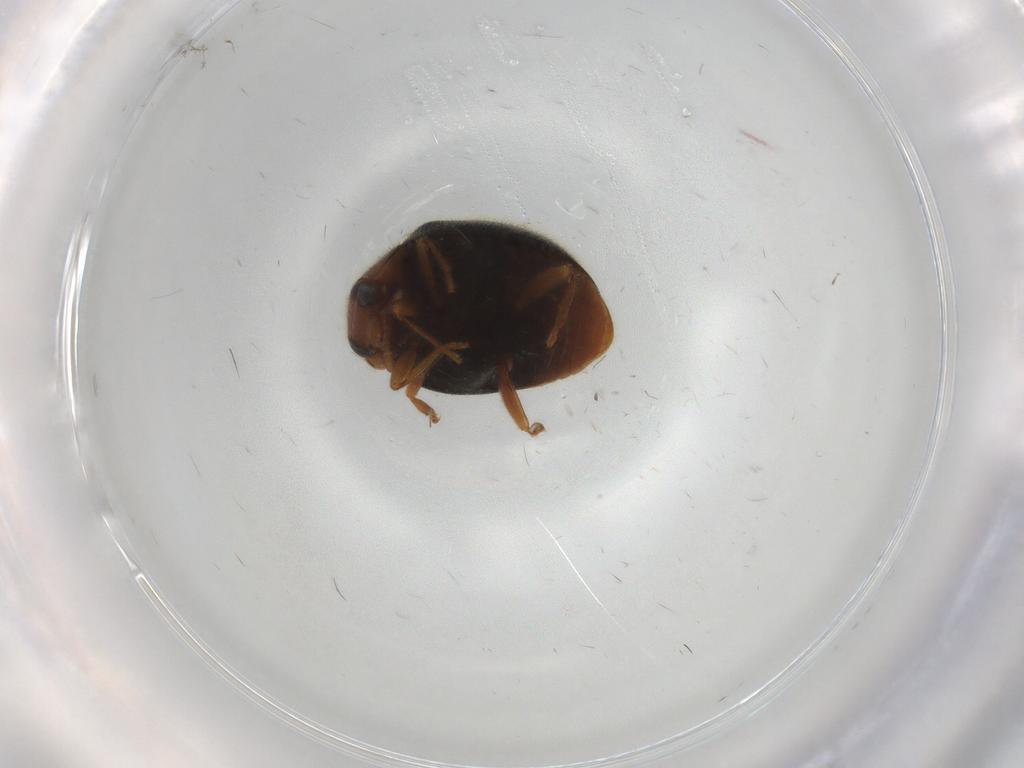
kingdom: Animalia
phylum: Arthropoda
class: Insecta
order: Coleoptera
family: Coccinellidae
